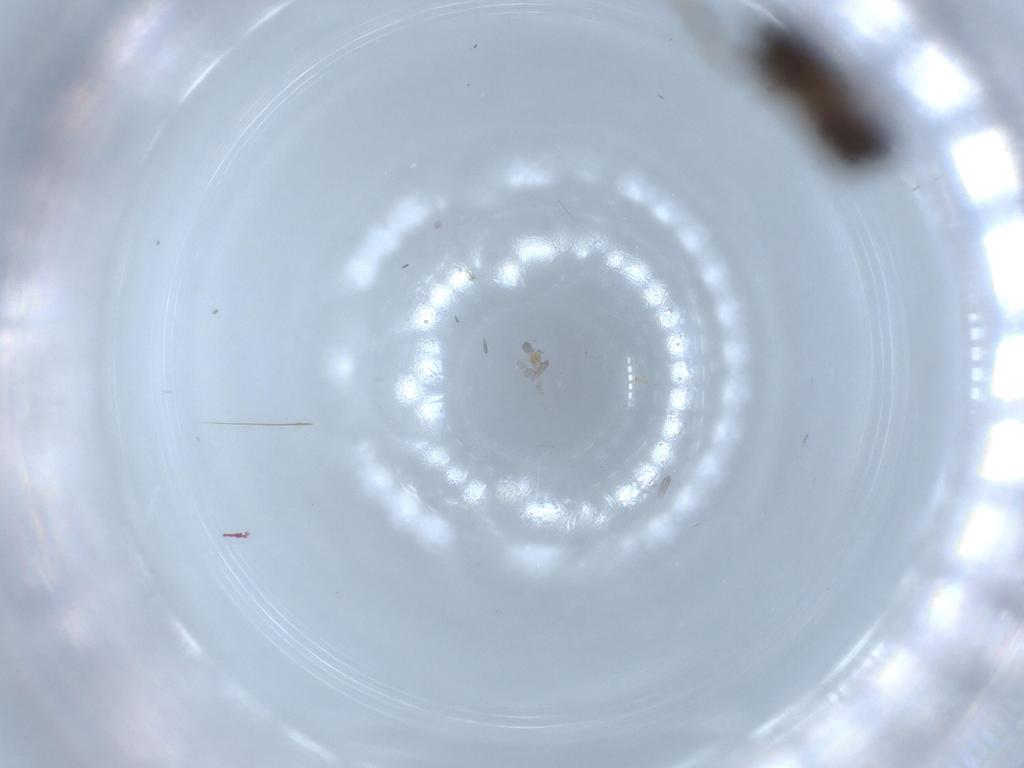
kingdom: Animalia
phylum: Arthropoda
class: Insecta
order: Diptera
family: Ceratopogonidae
